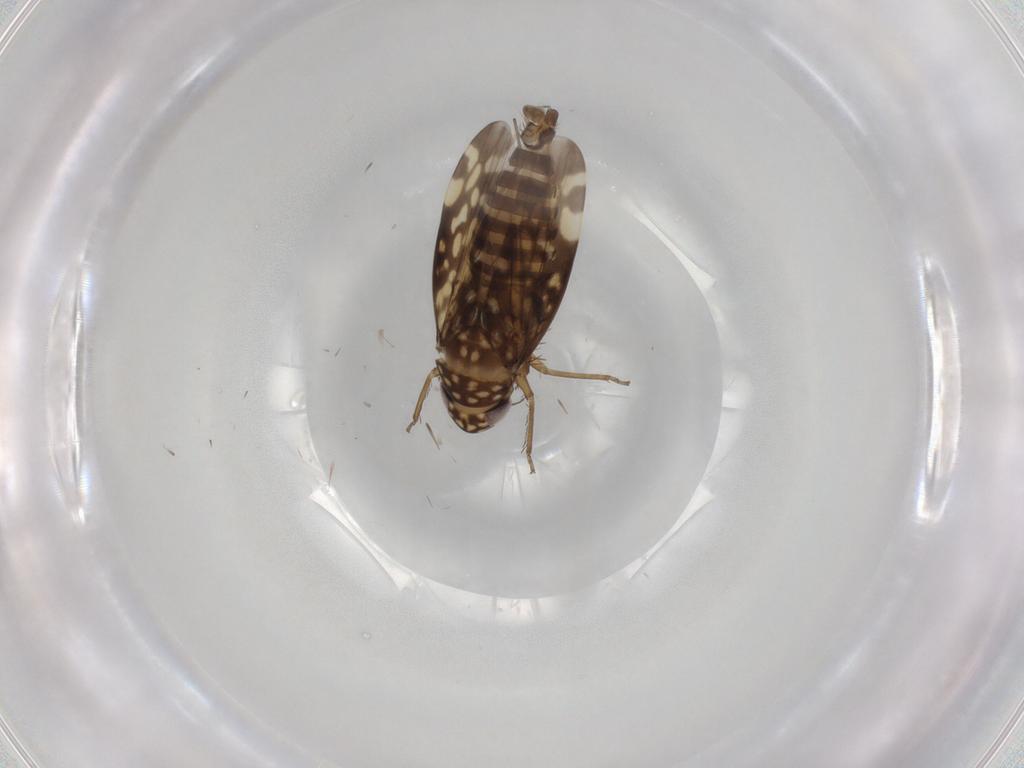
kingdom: Animalia
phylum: Arthropoda
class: Insecta
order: Hemiptera
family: Cicadellidae
